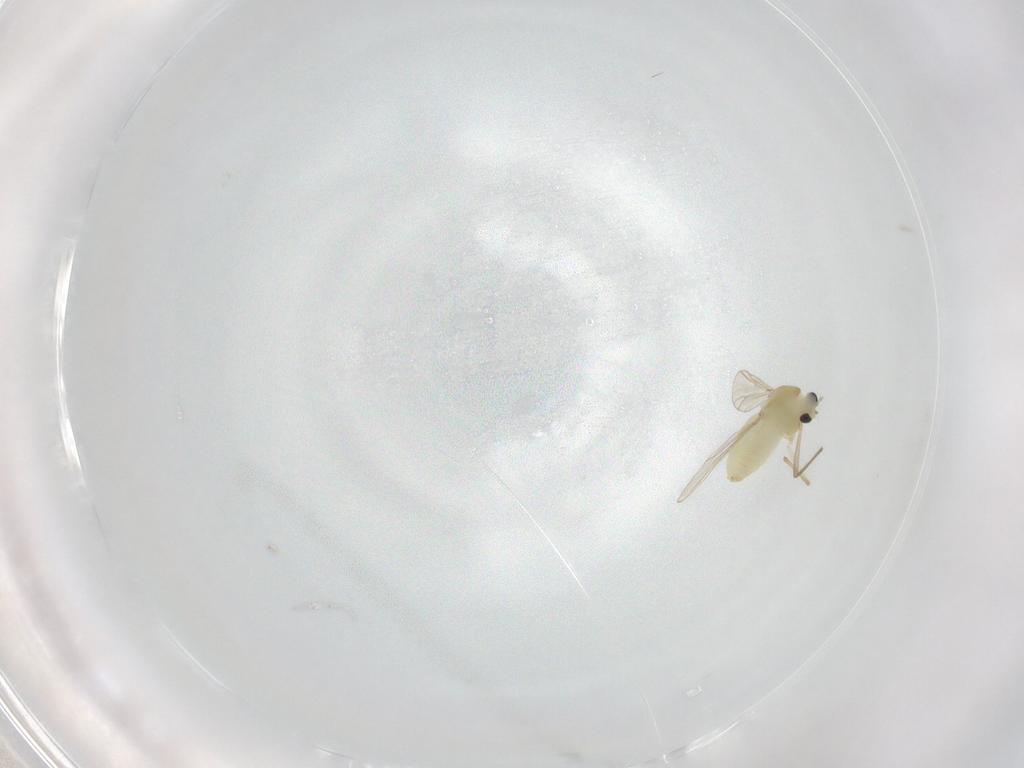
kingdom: Animalia
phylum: Arthropoda
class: Insecta
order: Diptera
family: Chironomidae
